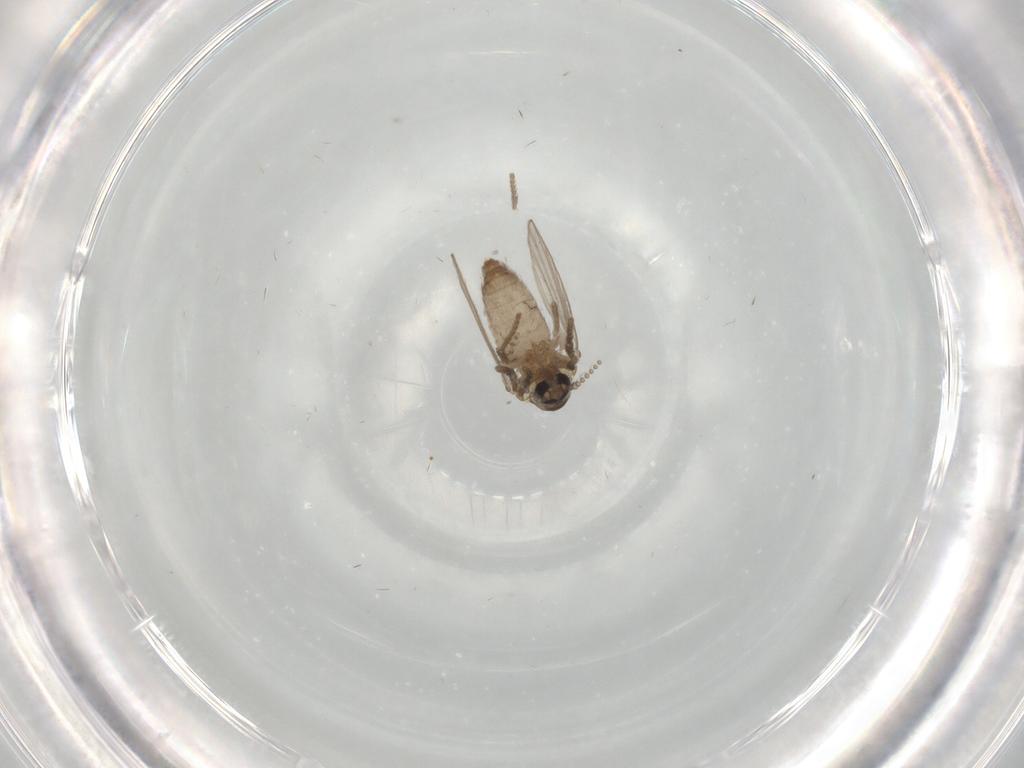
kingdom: Animalia
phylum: Arthropoda
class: Insecta
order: Diptera
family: Psychodidae
